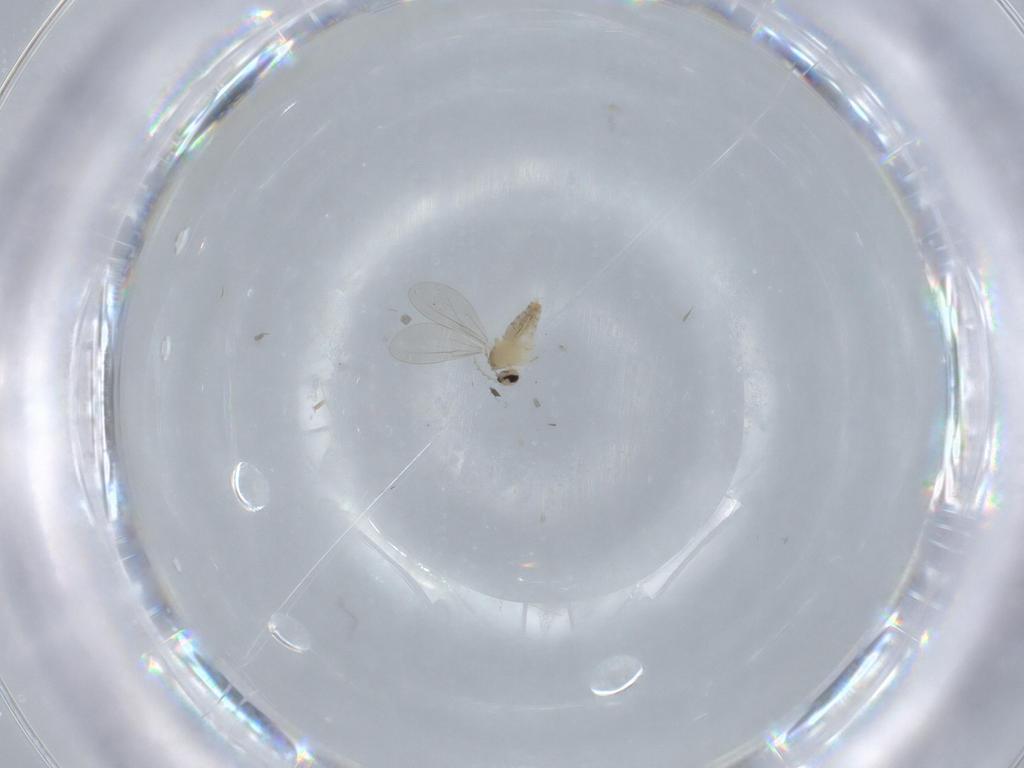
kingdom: Animalia
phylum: Arthropoda
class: Insecta
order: Diptera
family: Cecidomyiidae
